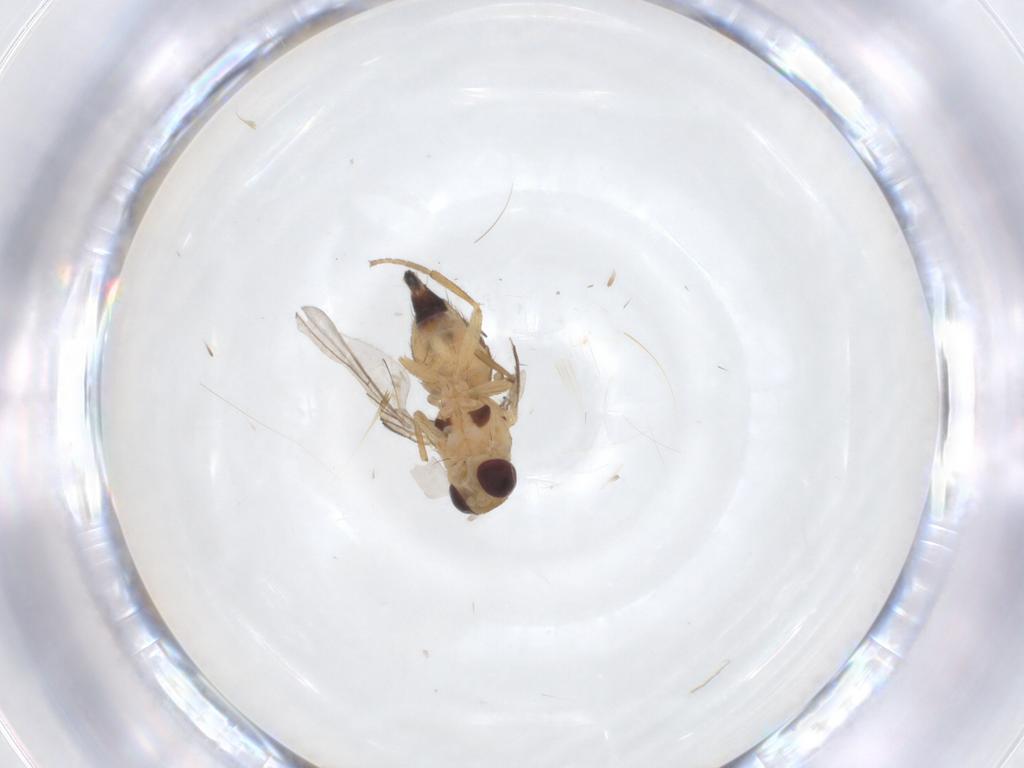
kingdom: Animalia
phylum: Arthropoda
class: Insecta
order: Diptera
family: Agromyzidae
